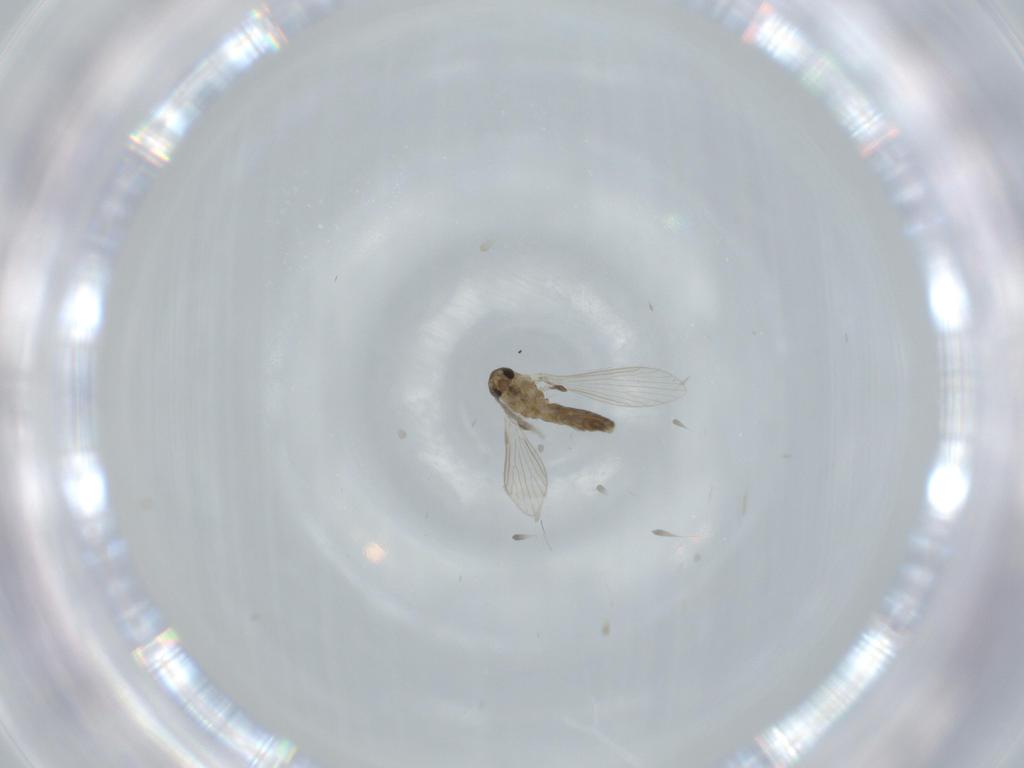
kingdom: Animalia
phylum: Arthropoda
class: Insecta
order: Diptera
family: Psychodidae
